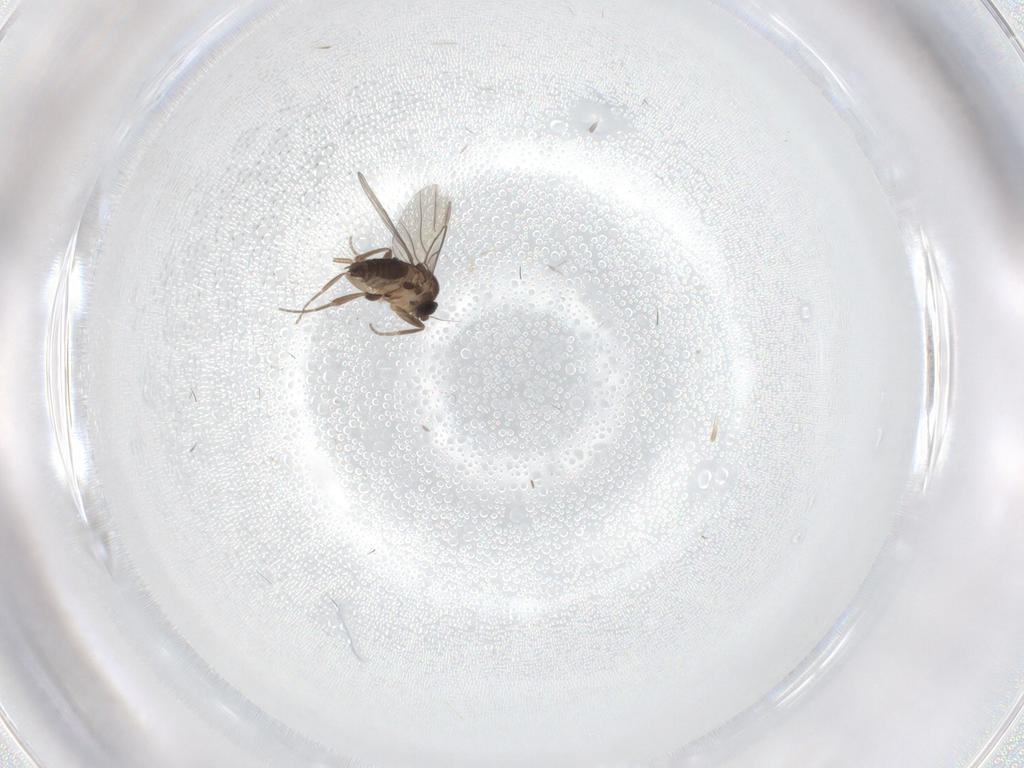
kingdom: Animalia
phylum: Arthropoda
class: Insecta
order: Diptera
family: Phoridae
